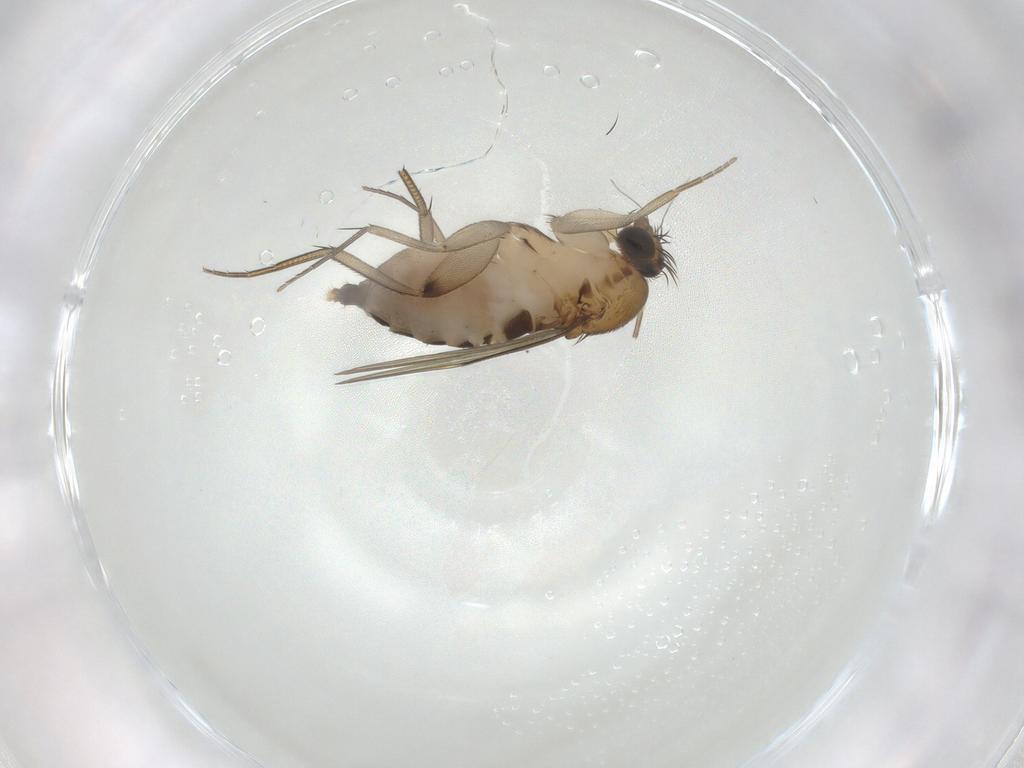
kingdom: Animalia
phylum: Arthropoda
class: Insecta
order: Diptera
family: Phoridae
